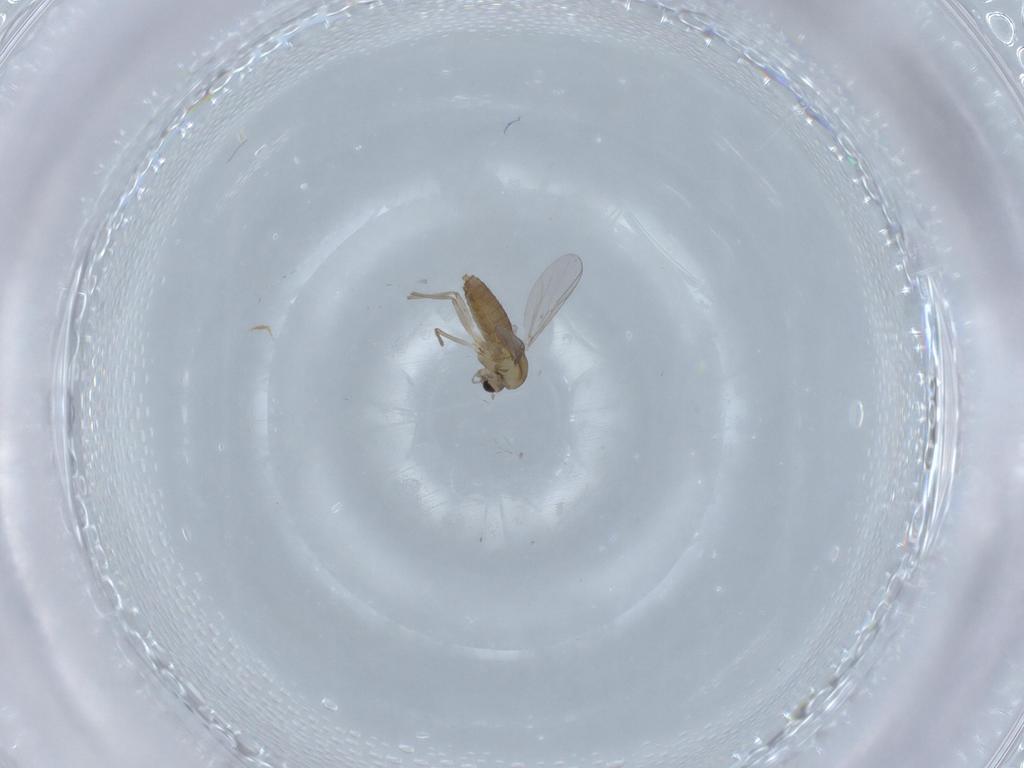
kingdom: Animalia
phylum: Arthropoda
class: Insecta
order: Diptera
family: Chironomidae
